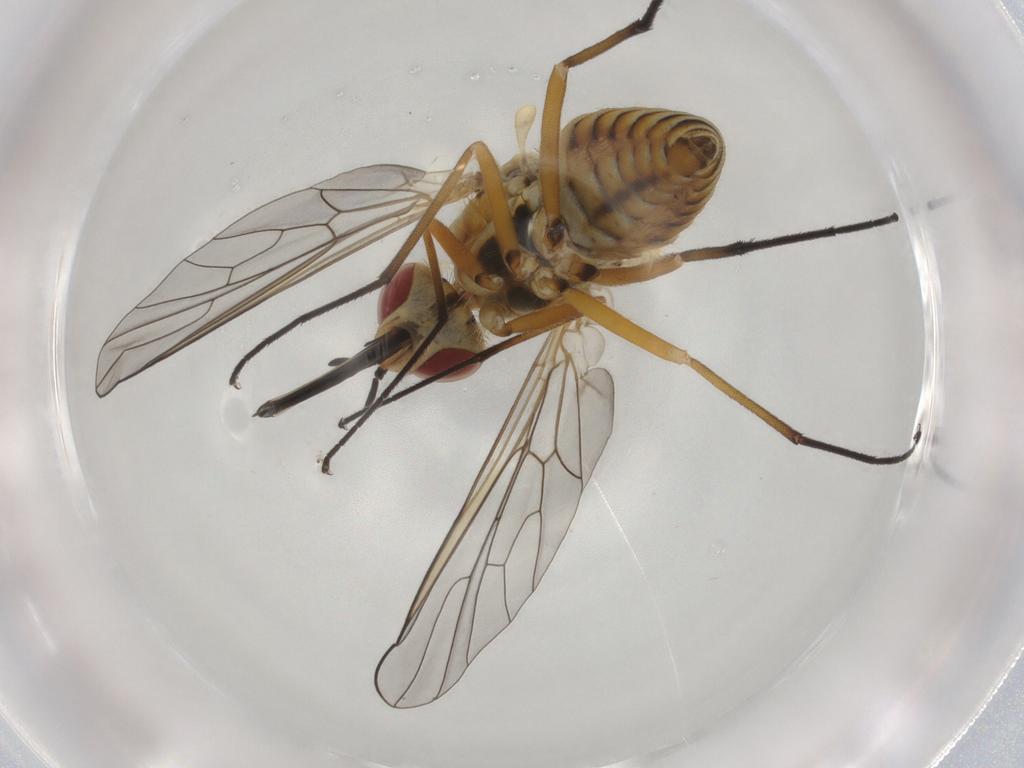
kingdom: Animalia
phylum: Arthropoda
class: Insecta
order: Diptera
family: Bombyliidae
